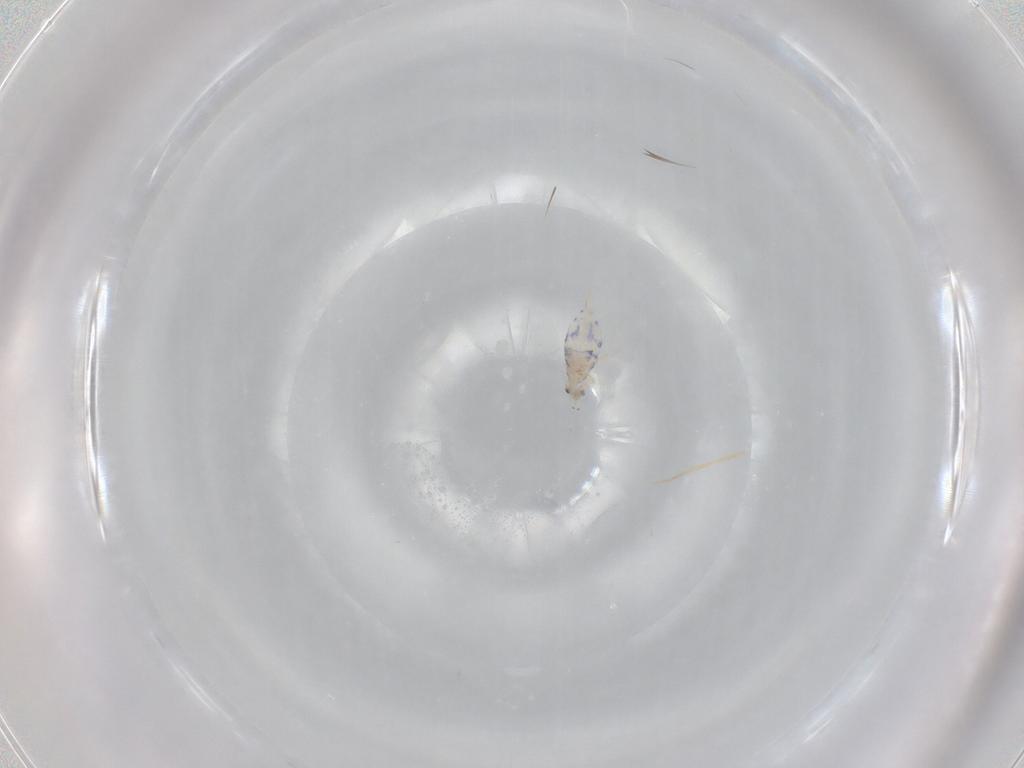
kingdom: Animalia
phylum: Arthropoda
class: Collembola
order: Entomobryomorpha
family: Entomobryidae
